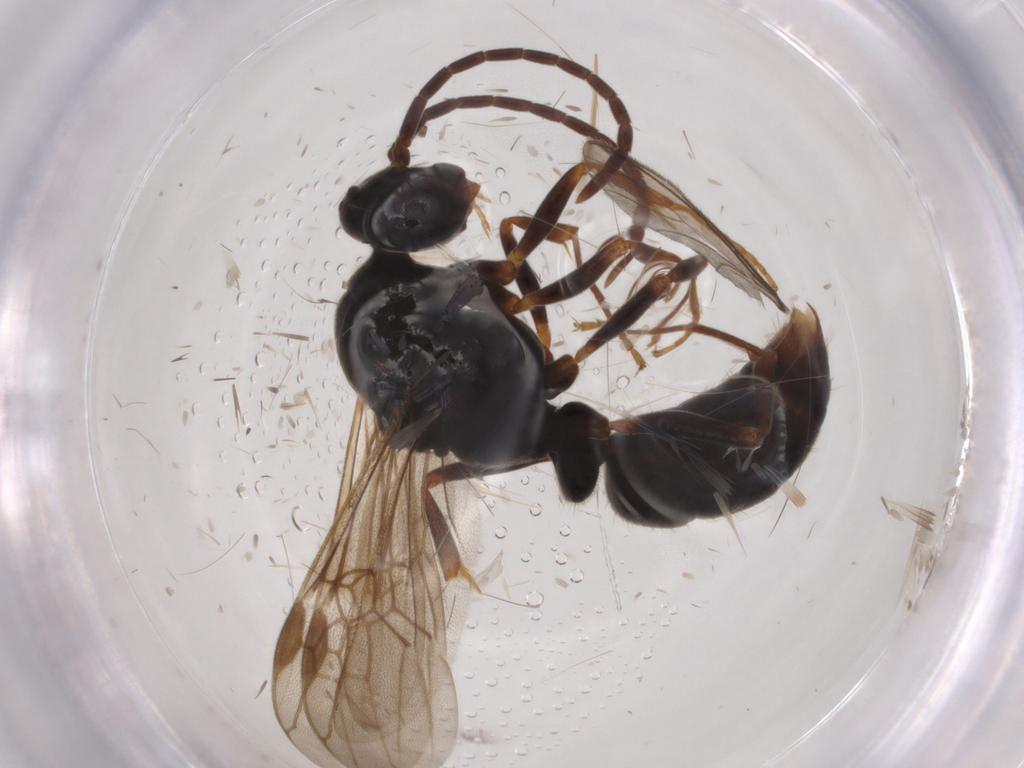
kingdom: Animalia
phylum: Arthropoda
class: Insecta
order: Hymenoptera
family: Formicidae
